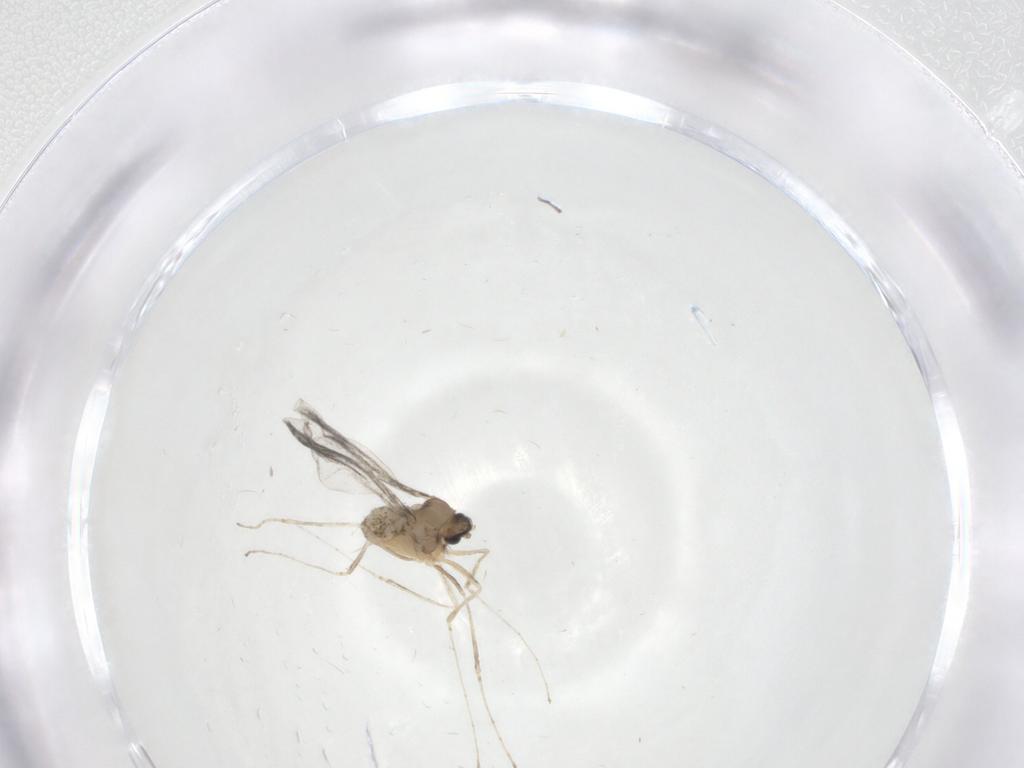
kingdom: Animalia
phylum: Arthropoda
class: Insecta
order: Diptera
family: Cecidomyiidae
